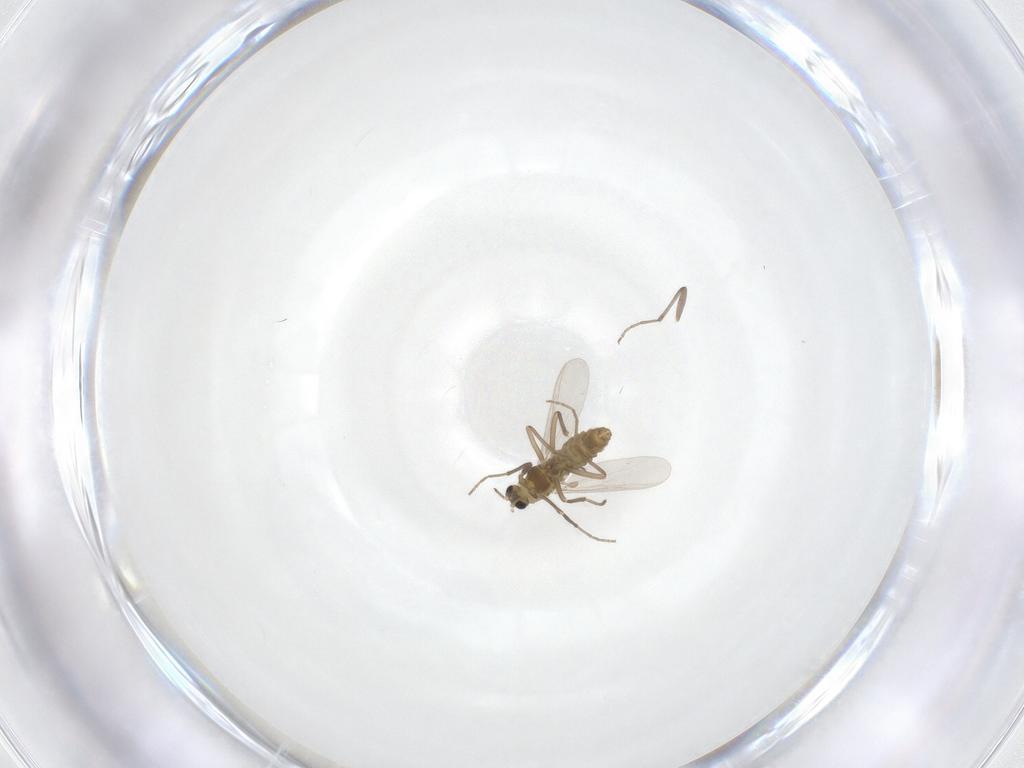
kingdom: Animalia
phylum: Arthropoda
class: Insecta
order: Diptera
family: Chironomidae
